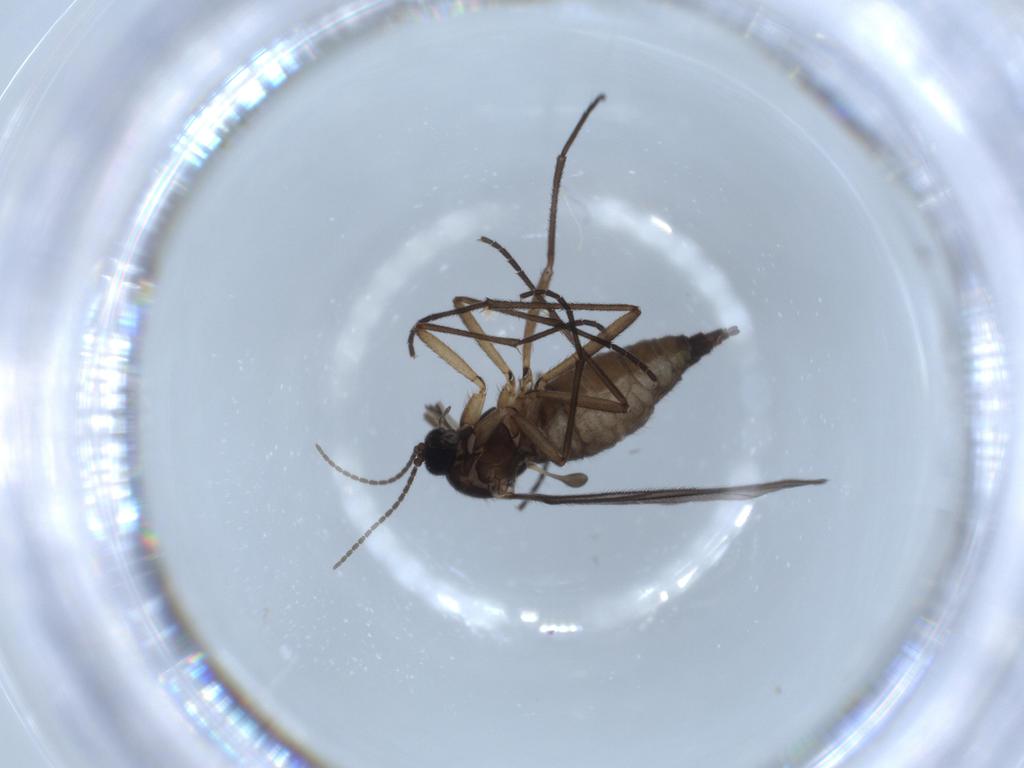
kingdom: Animalia
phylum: Arthropoda
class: Insecta
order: Diptera
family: Sciaridae
